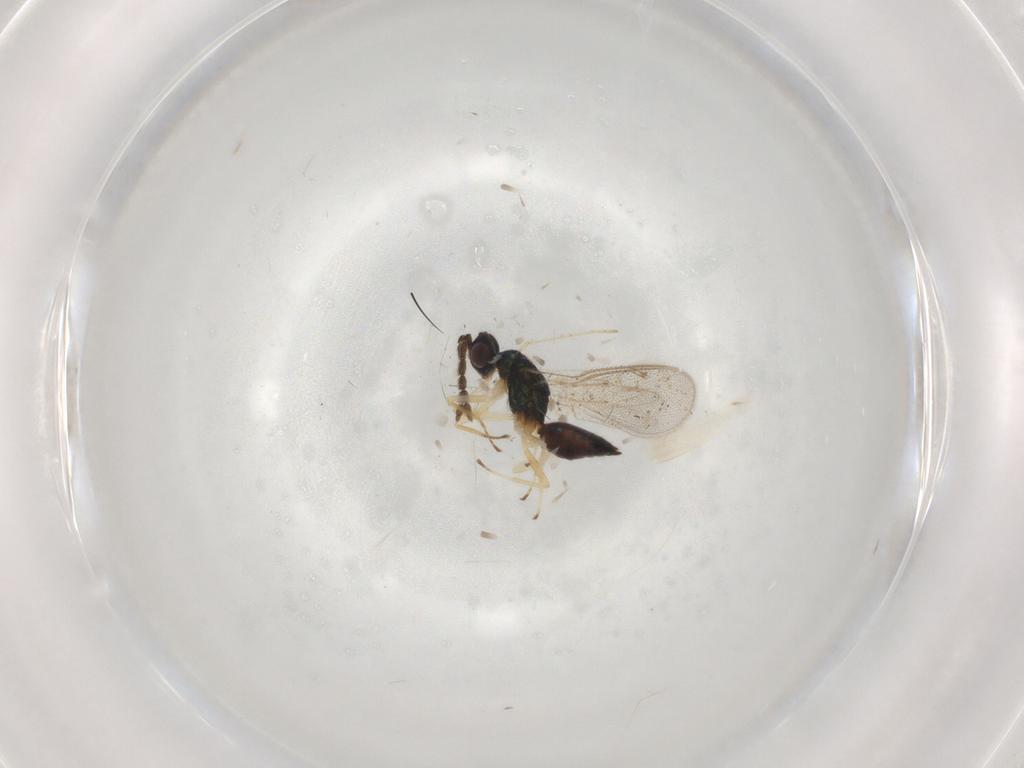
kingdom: Animalia
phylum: Arthropoda
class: Insecta
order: Hymenoptera
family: Eulophidae
